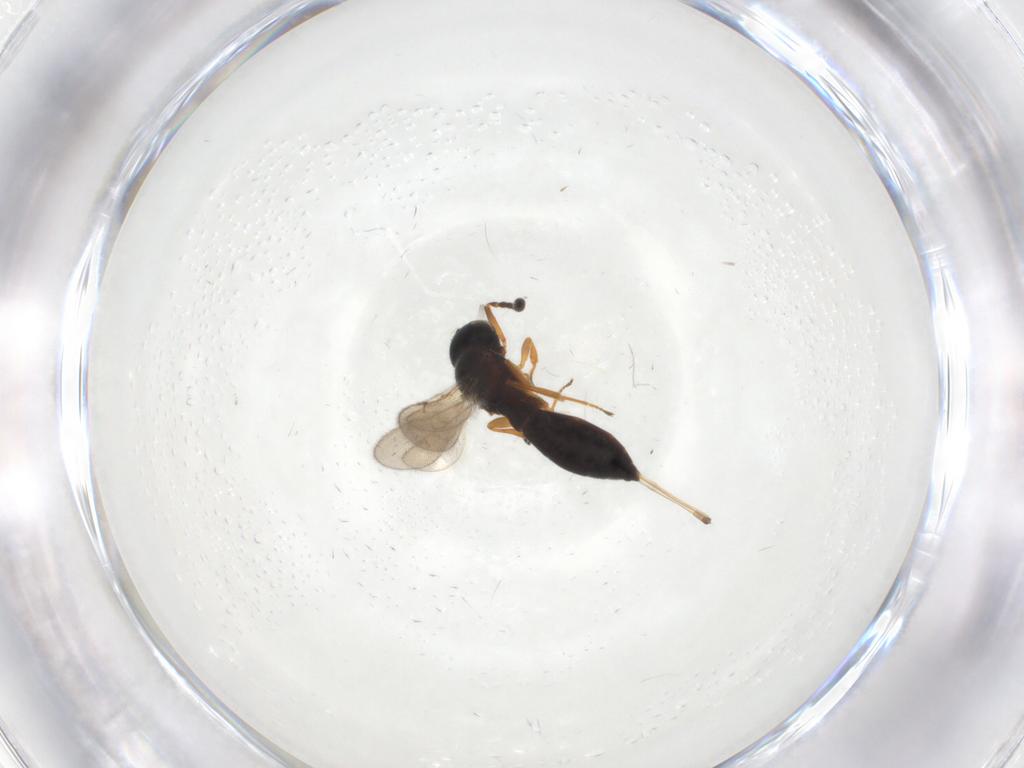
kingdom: Animalia
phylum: Arthropoda
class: Insecta
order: Hymenoptera
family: Scelionidae
